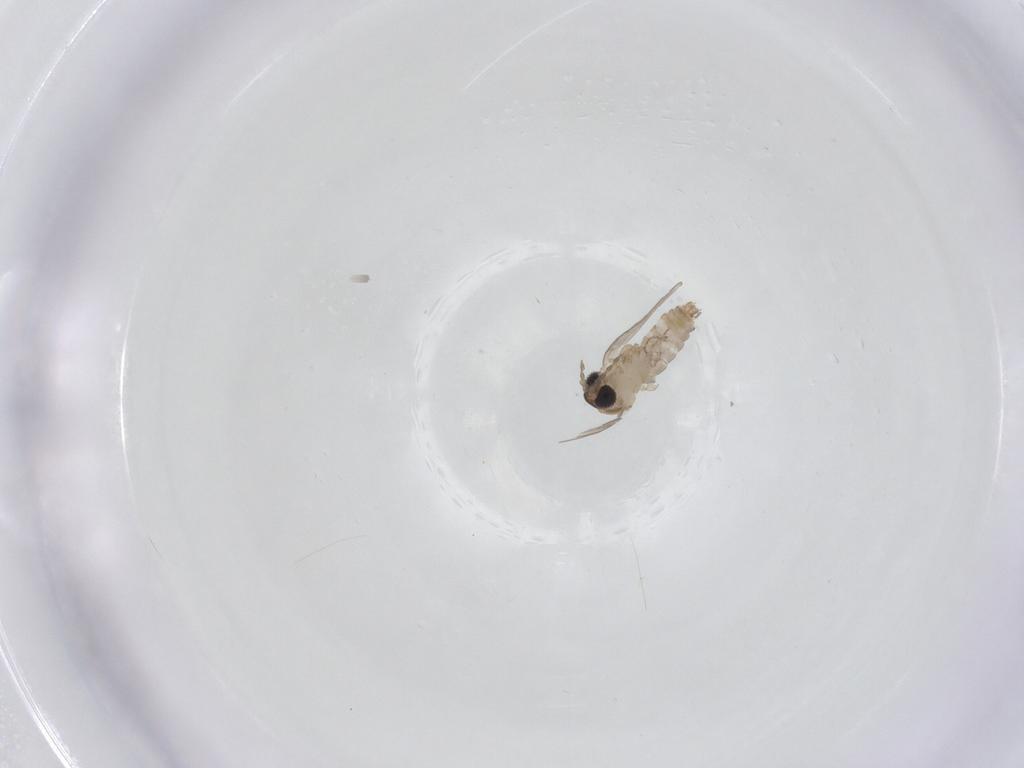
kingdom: Animalia
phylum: Arthropoda
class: Insecta
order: Diptera
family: Psychodidae
